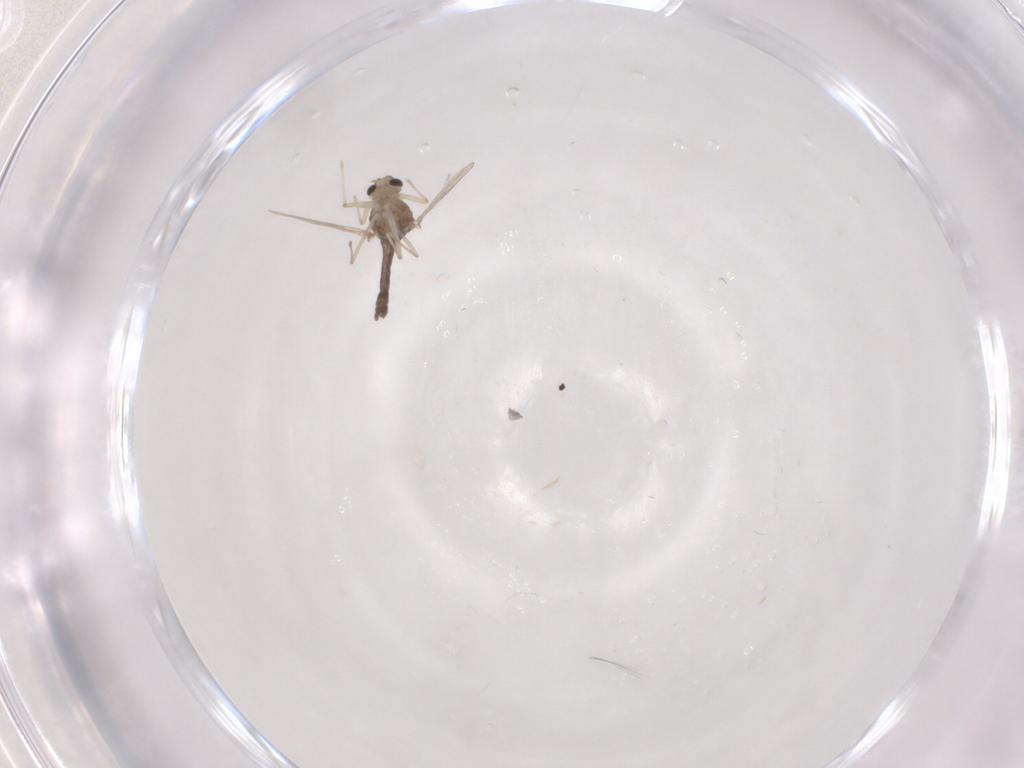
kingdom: Animalia
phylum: Arthropoda
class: Insecta
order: Diptera
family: Chironomidae
